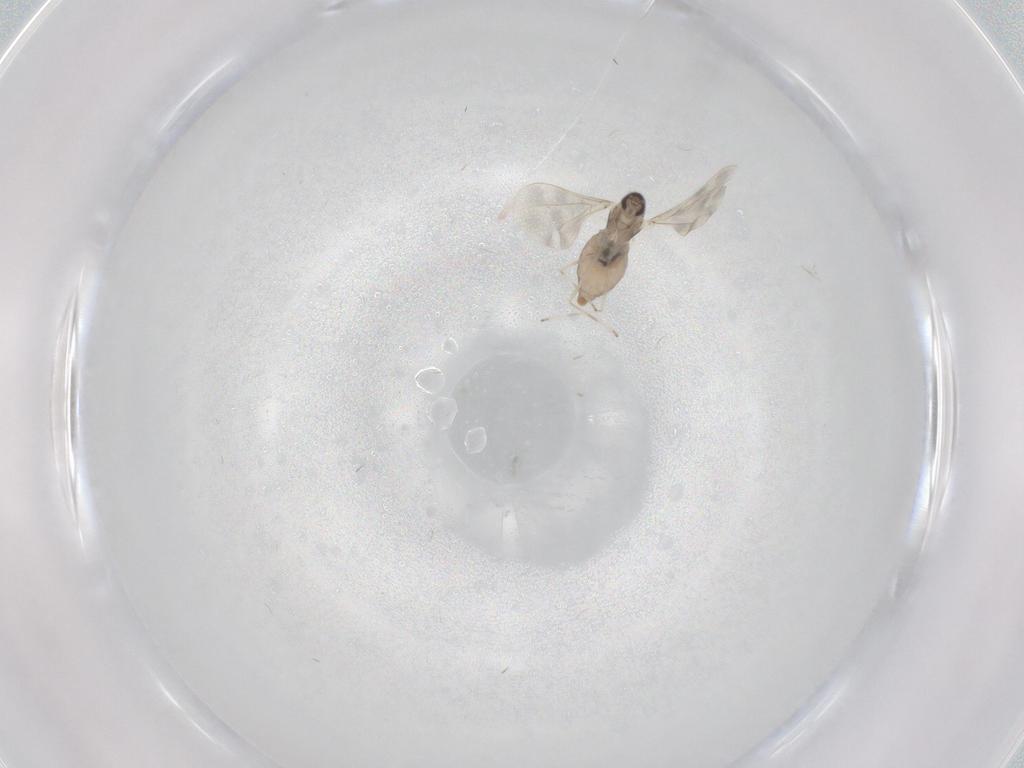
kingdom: Animalia
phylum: Arthropoda
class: Insecta
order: Diptera
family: Cecidomyiidae
